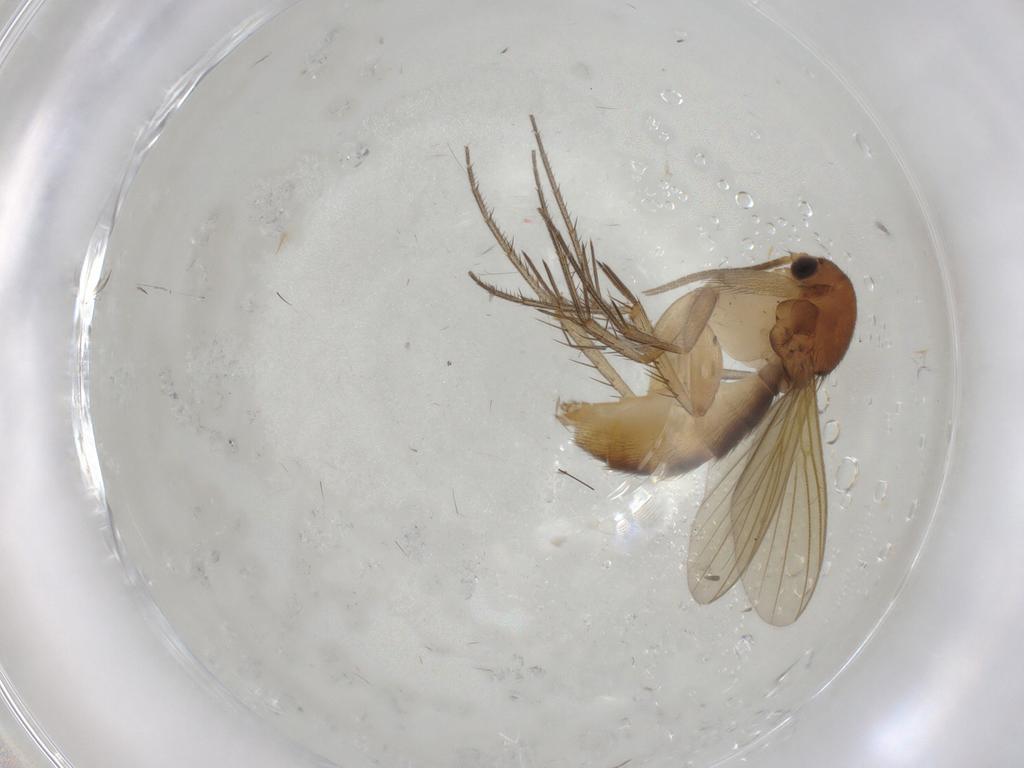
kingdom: Animalia
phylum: Arthropoda
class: Insecta
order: Diptera
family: Mycetophilidae
